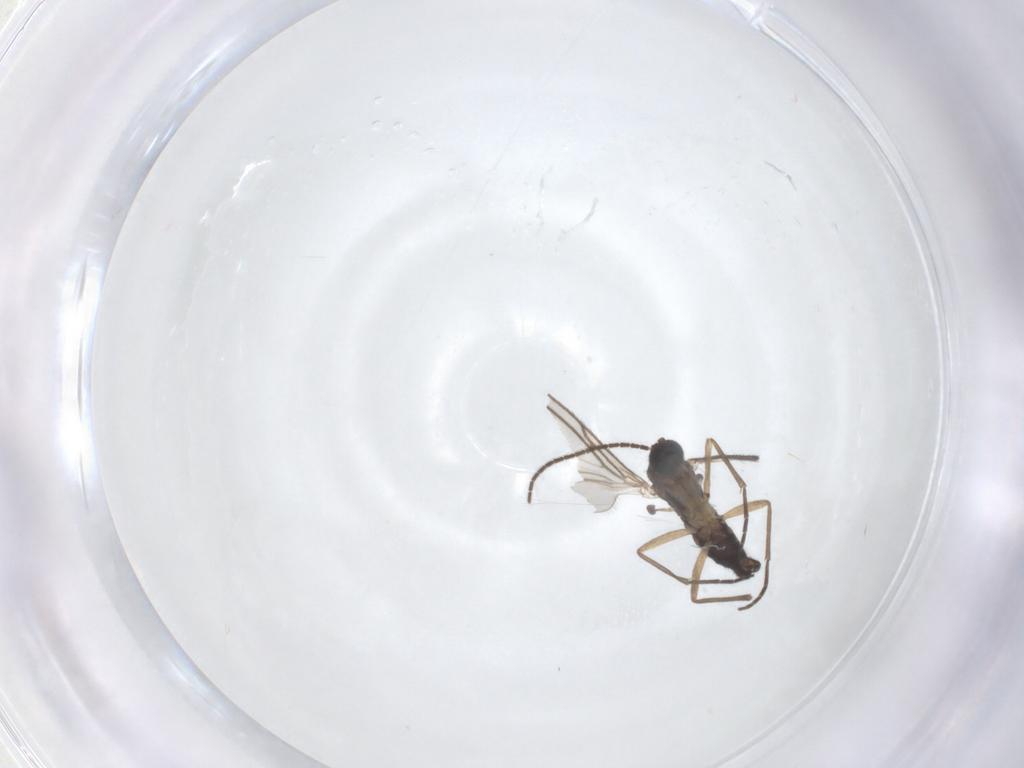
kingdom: Animalia
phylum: Arthropoda
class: Insecta
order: Diptera
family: Sciaridae
